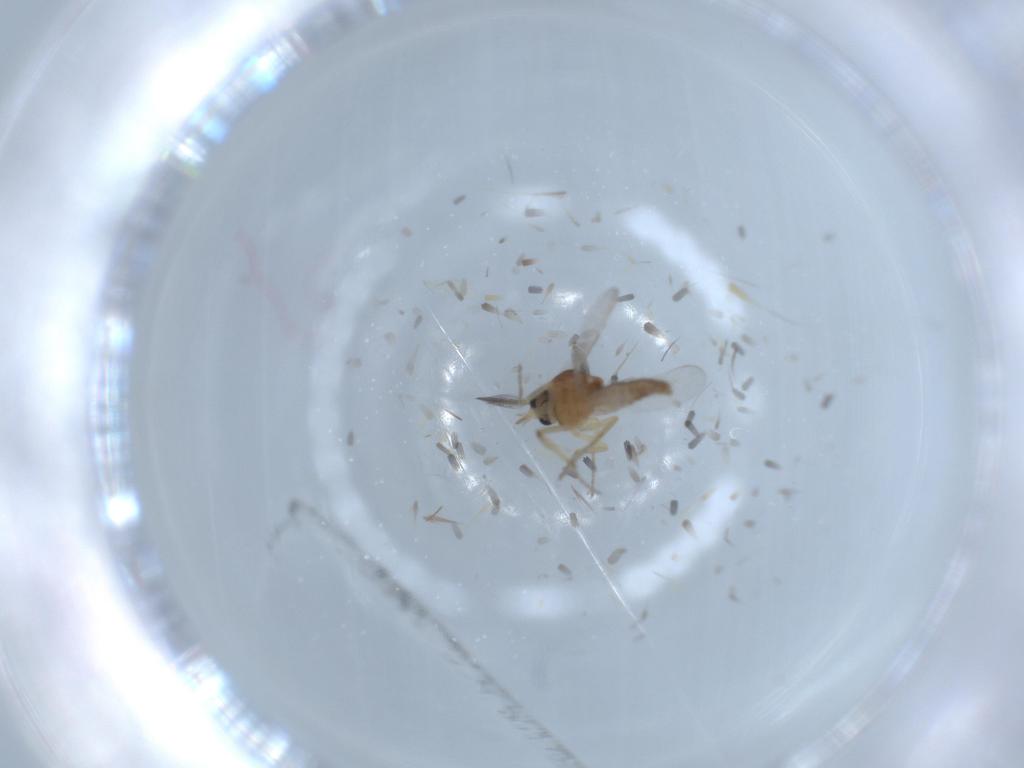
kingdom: Animalia
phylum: Arthropoda
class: Insecta
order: Diptera
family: Ceratopogonidae
